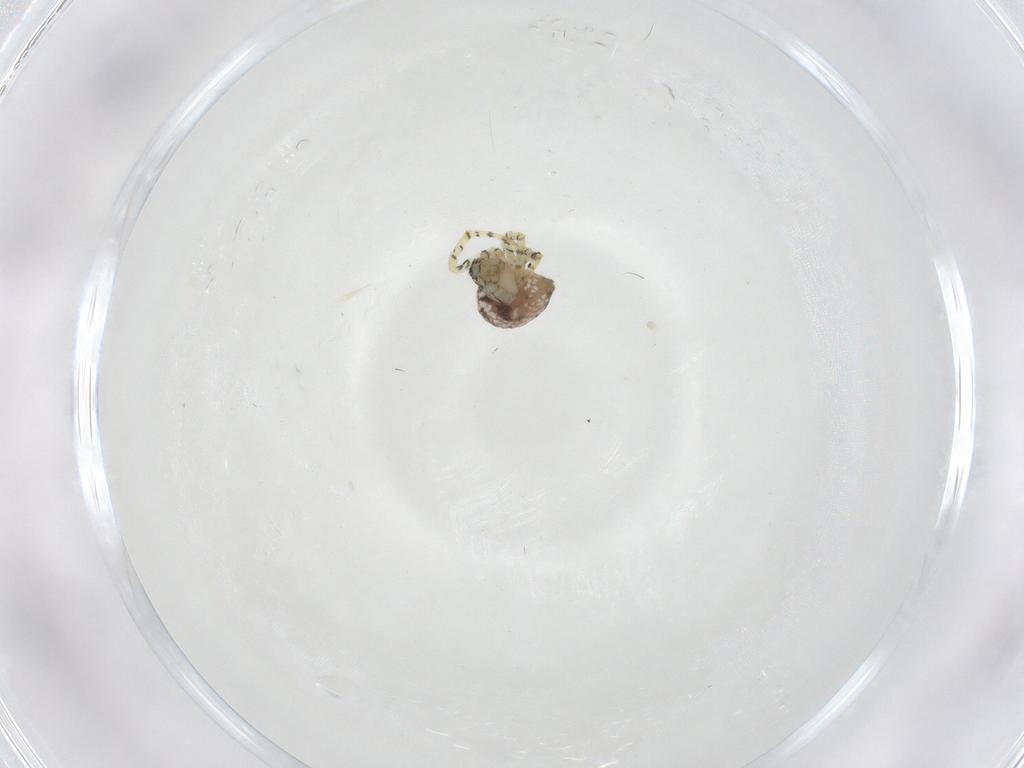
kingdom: Animalia
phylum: Arthropoda
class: Arachnida
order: Araneae
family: Theridiidae
